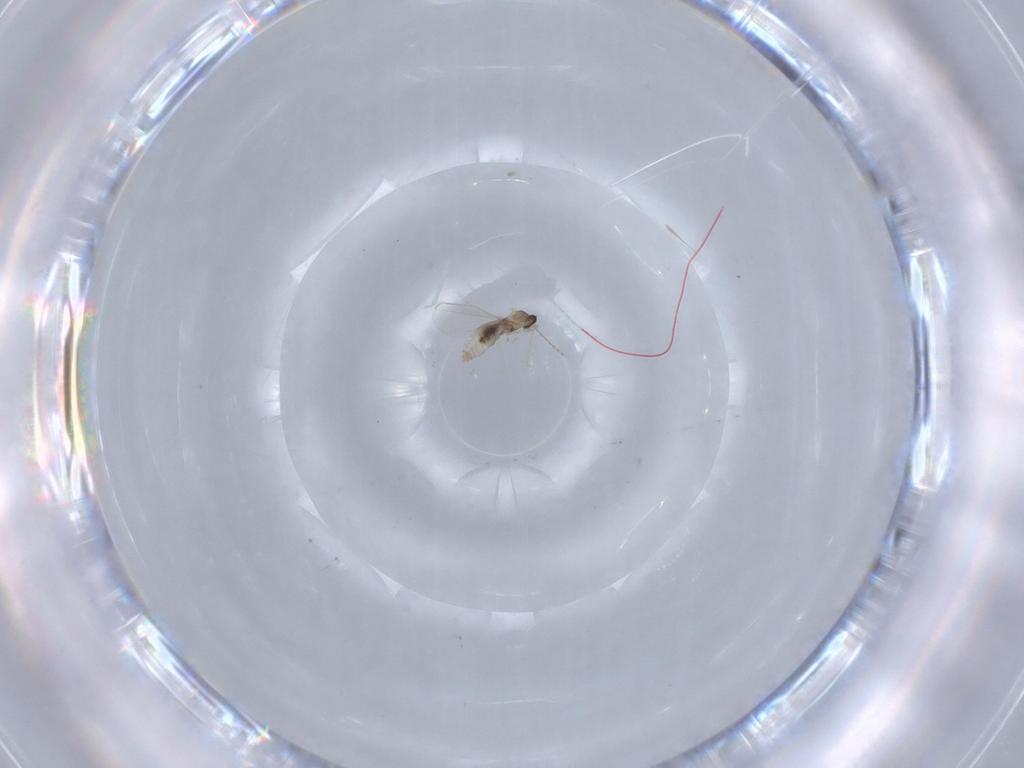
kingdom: Animalia
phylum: Arthropoda
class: Insecta
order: Diptera
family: Cecidomyiidae
